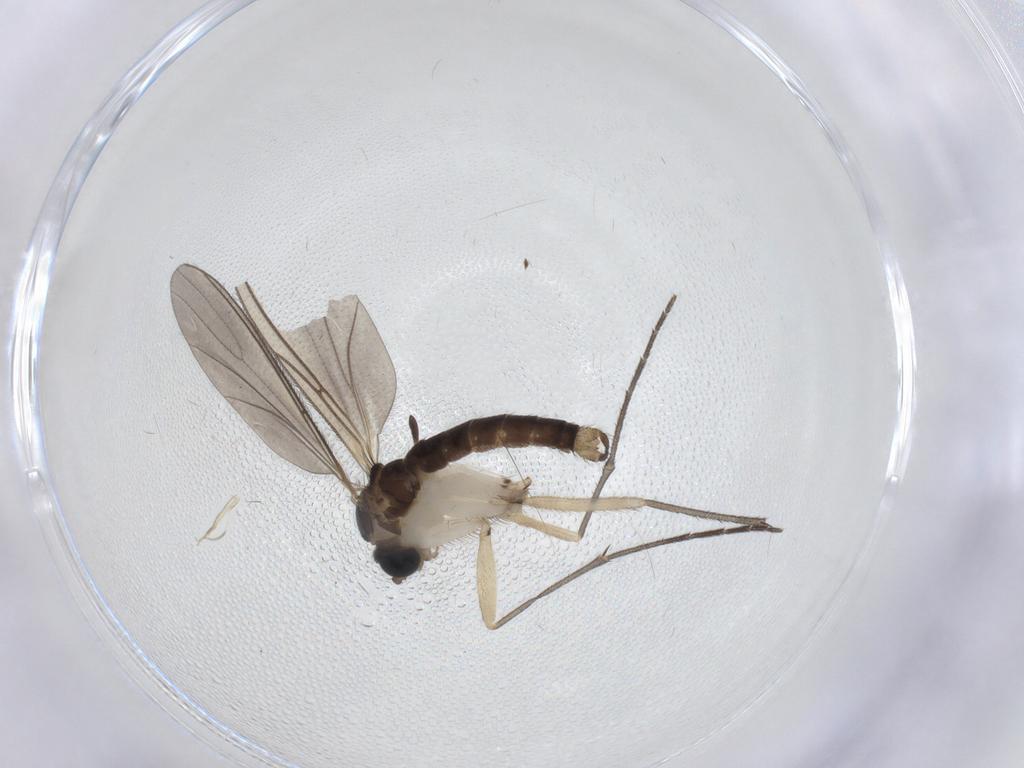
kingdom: Animalia
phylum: Arthropoda
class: Insecta
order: Diptera
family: Sciaridae
